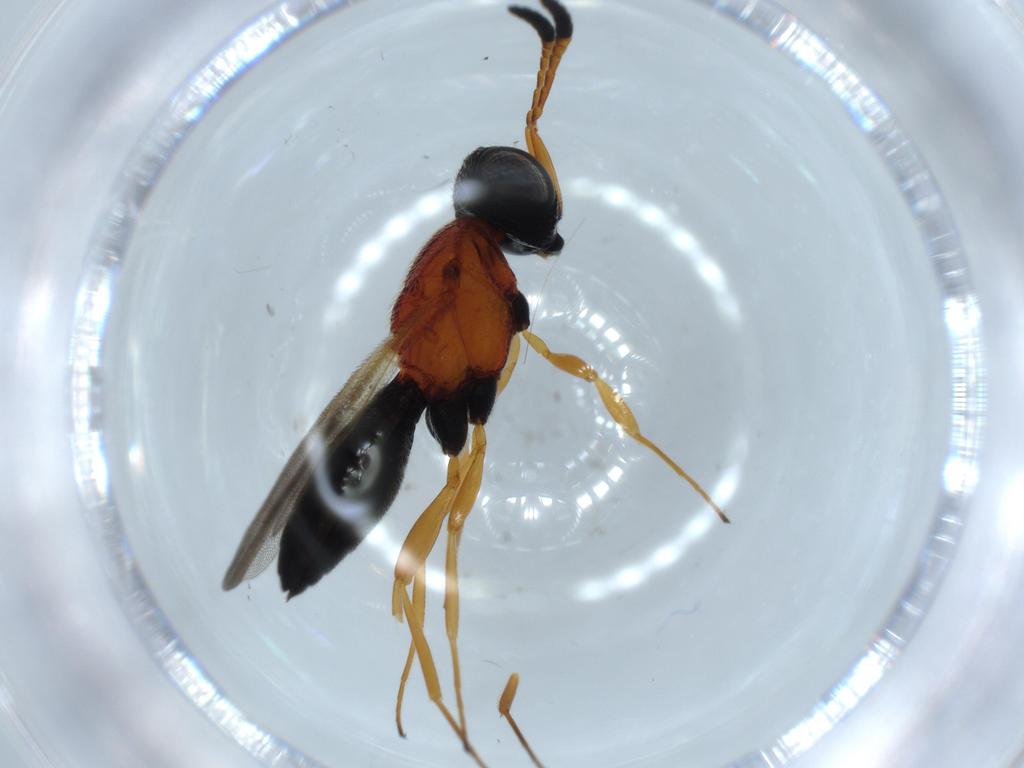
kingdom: Animalia
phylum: Arthropoda
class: Insecta
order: Hymenoptera
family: Scelionidae
